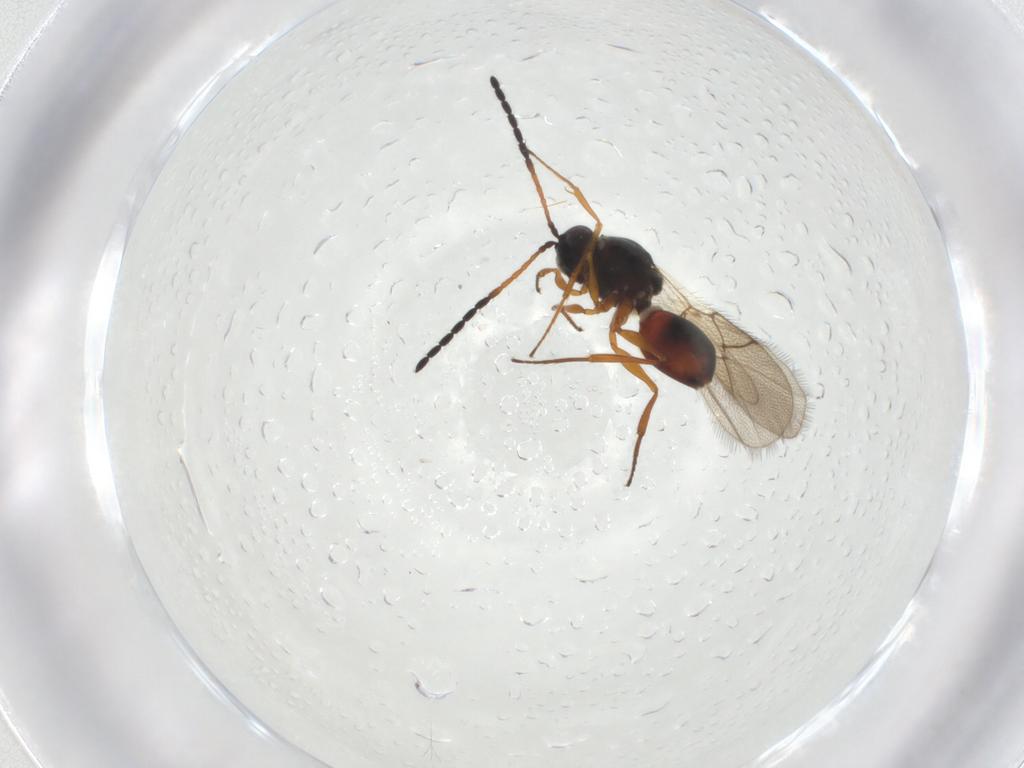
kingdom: Animalia
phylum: Arthropoda
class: Insecta
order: Hymenoptera
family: Figitidae
